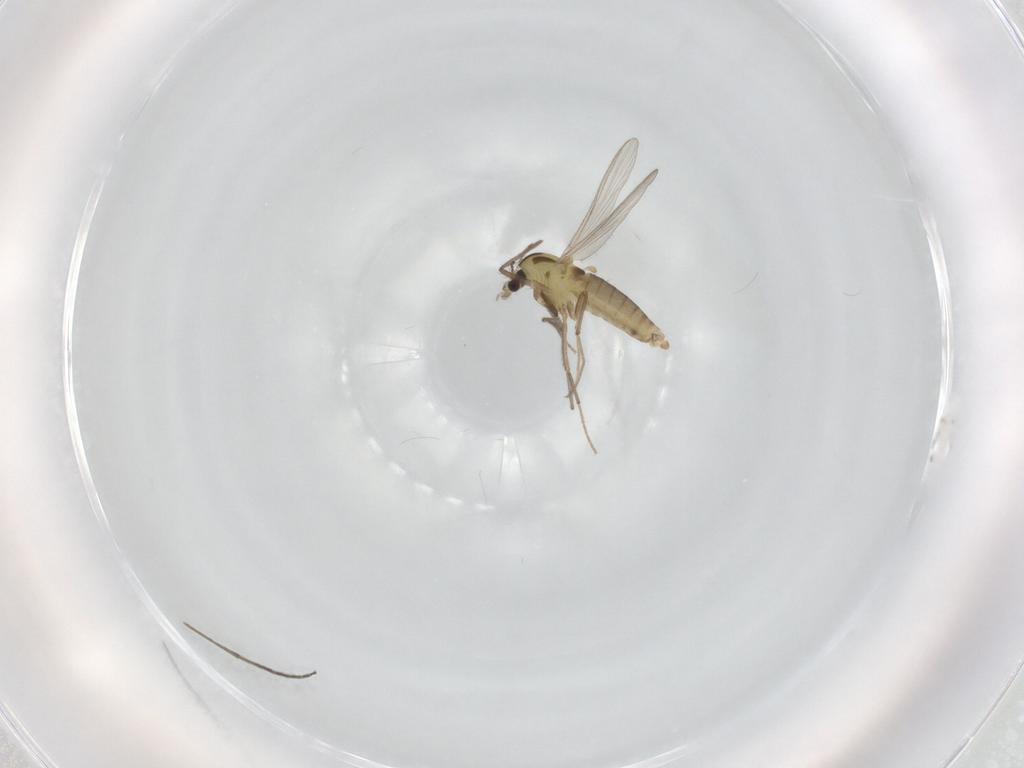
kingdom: Animalia
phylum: Arthropoda
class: Insecta
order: Diptera
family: Chironomidae
